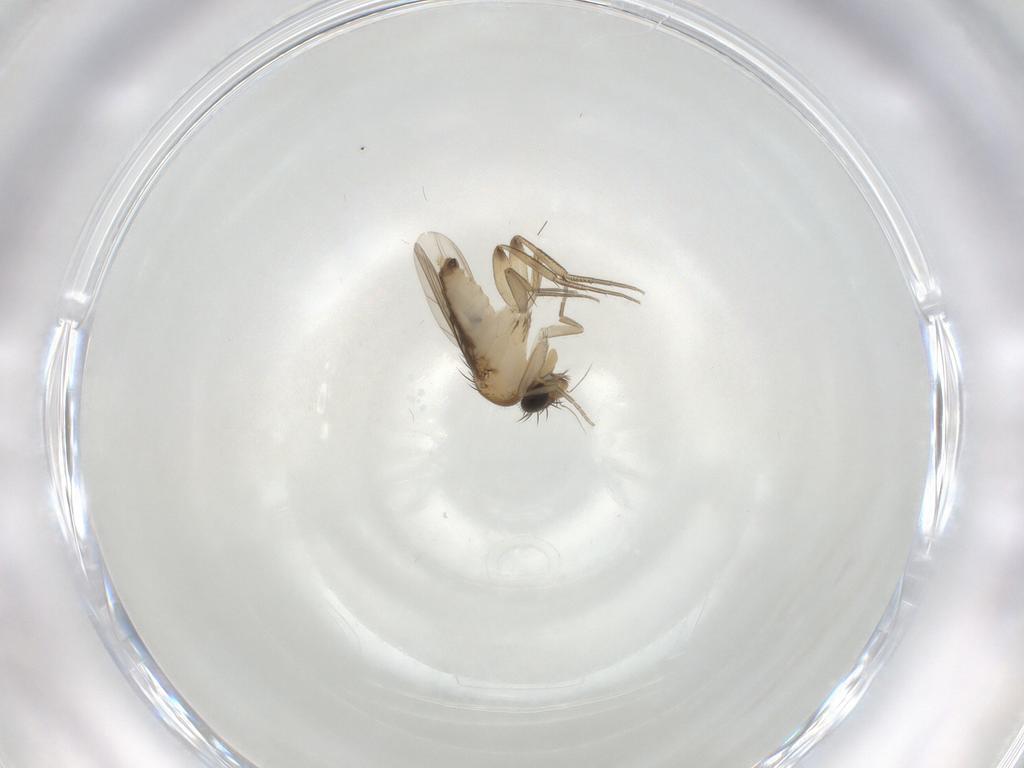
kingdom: Animalia
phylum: Arthropoda
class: Insecta
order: Diptera
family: Phoridae
